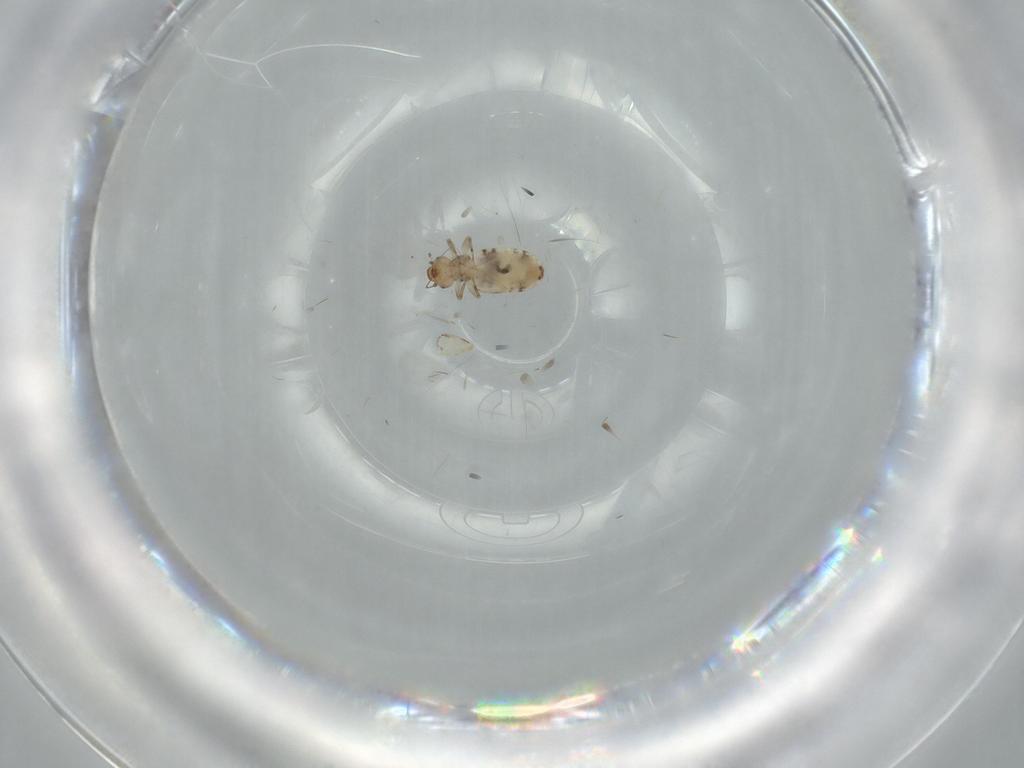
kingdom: Animalia
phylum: Arthropoda
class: Insecta
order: Psocodea
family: Liposcelididae
